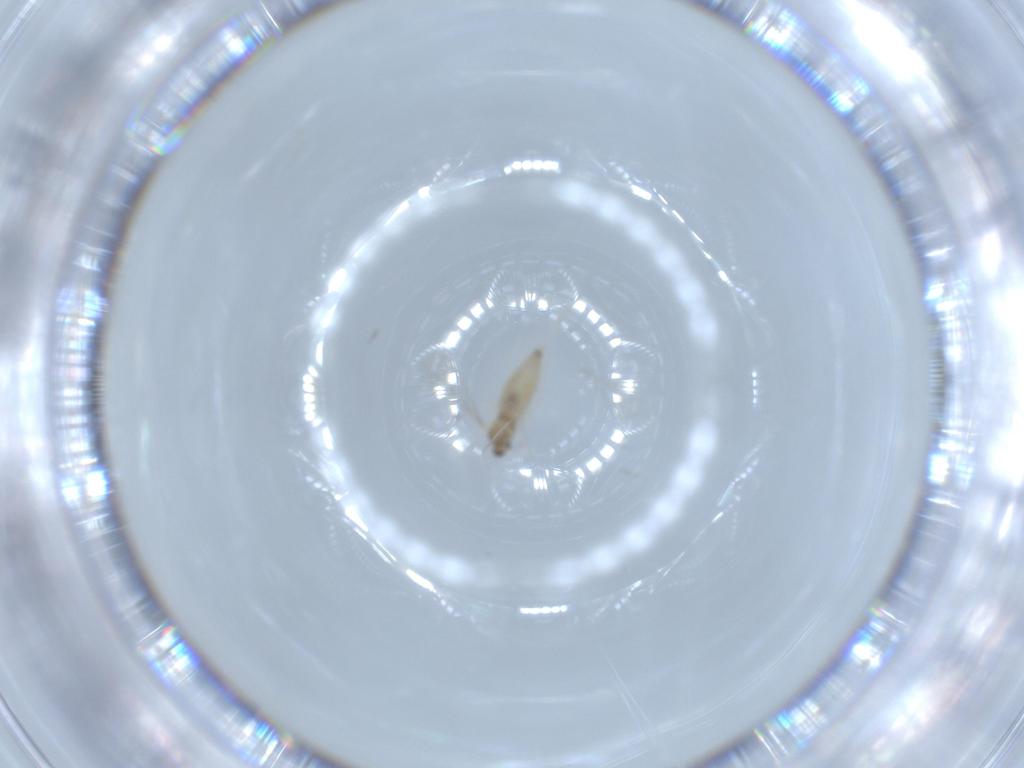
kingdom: Animalia
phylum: Arthropoda
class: Insecta
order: Diptera
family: Cecidomyiidae
